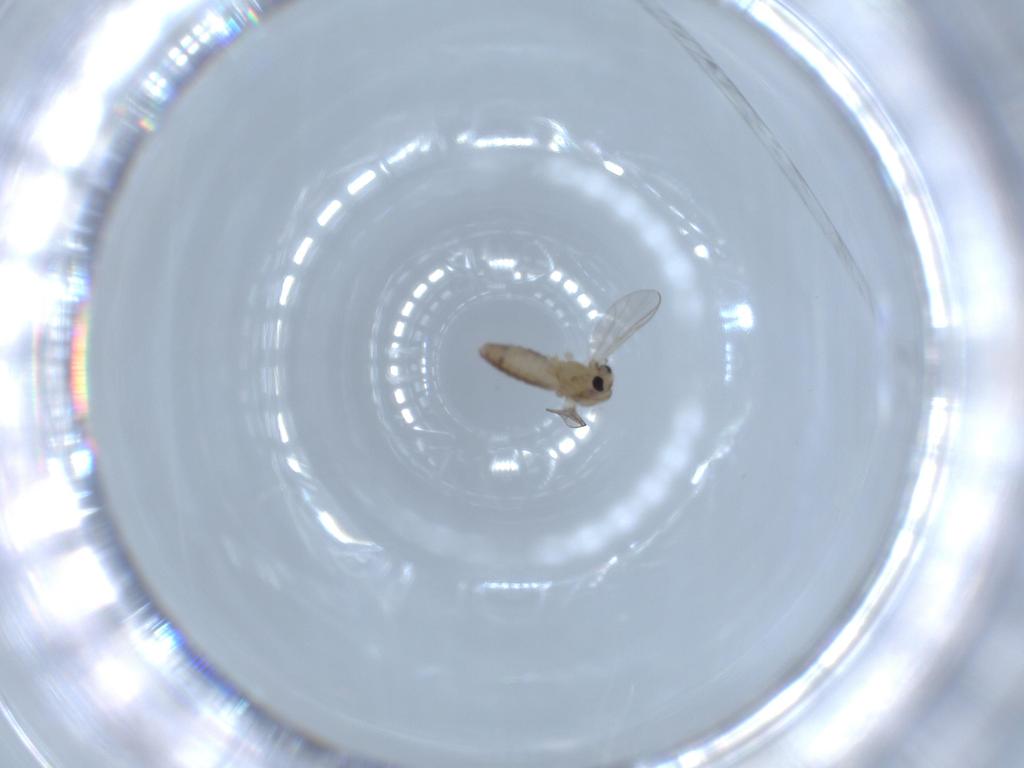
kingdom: Animalia
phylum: Arthropoda
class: Insecta
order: Diptera
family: Chironomidae
